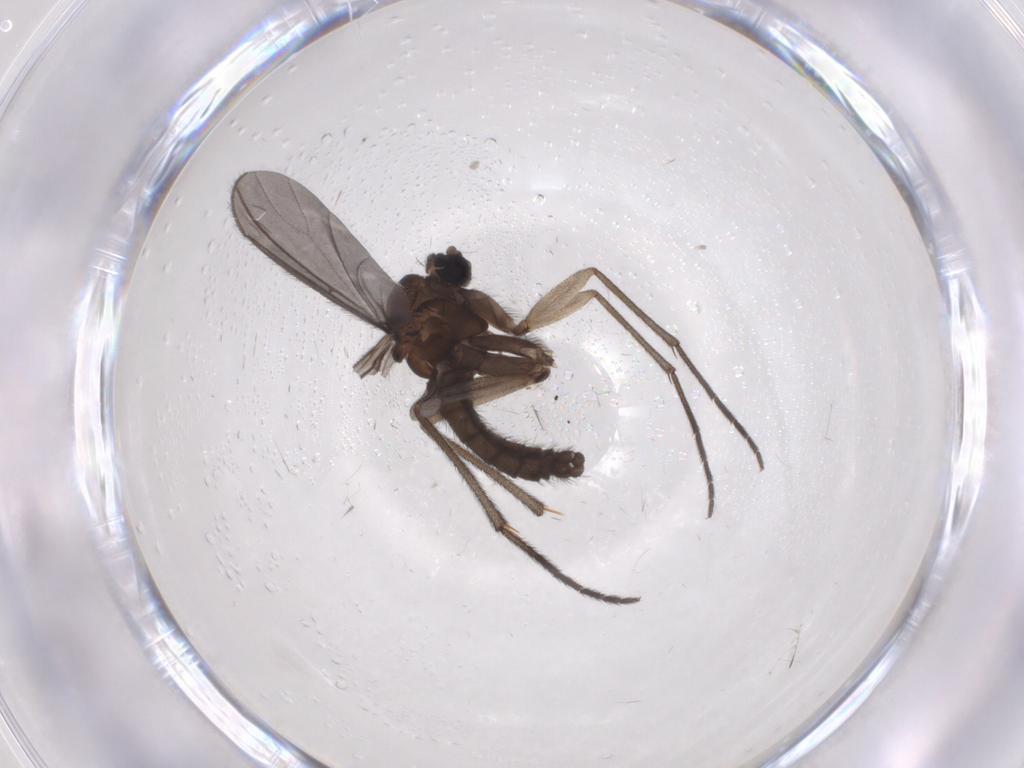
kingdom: Animalia
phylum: Arthropoda
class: Insecta
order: Diptera
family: Sciaridae
